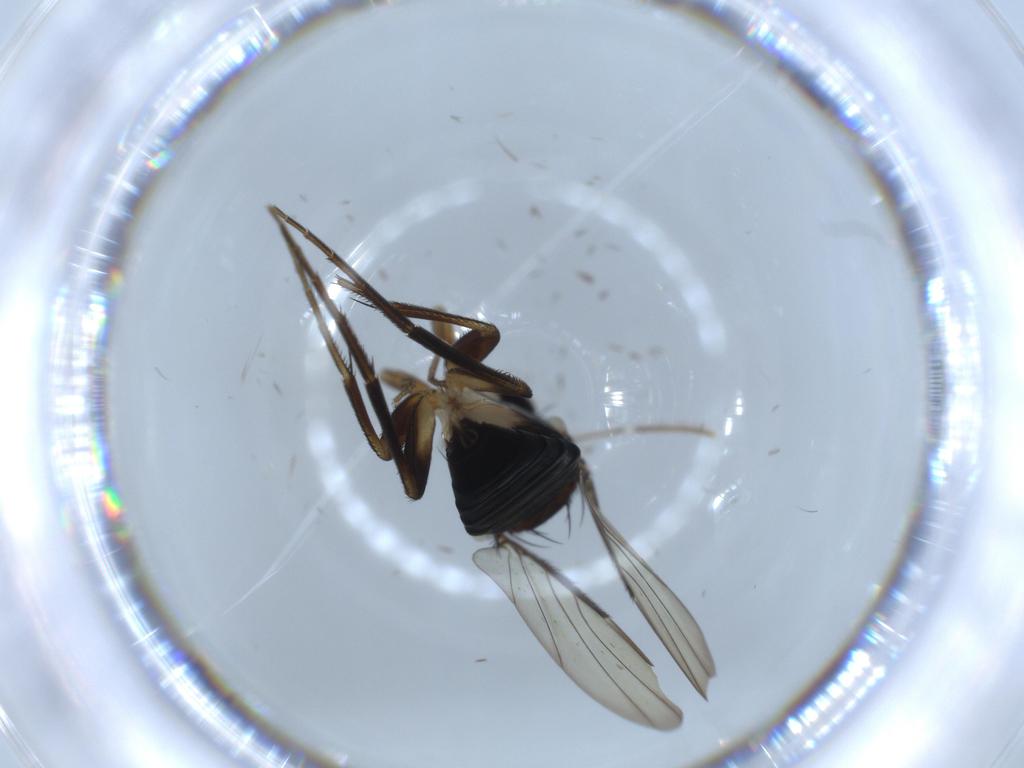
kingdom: Animalia
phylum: Arthropoda
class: Insecta
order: Diptera
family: Phoridae
